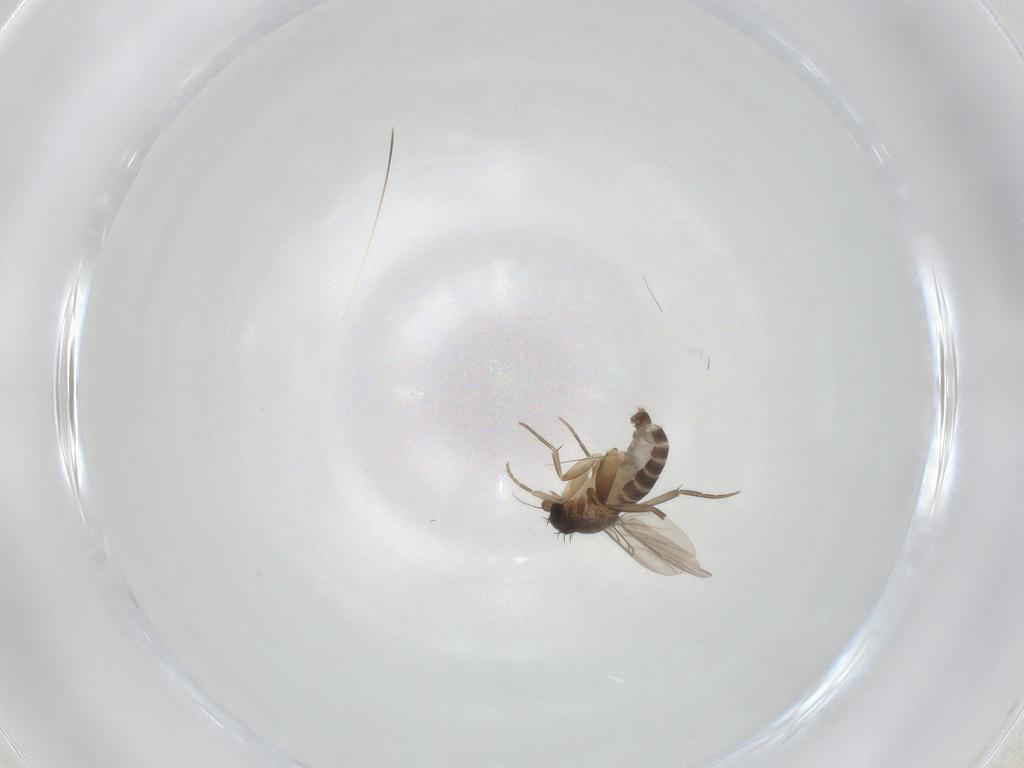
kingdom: Animalia
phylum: Arthropoda
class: Insecta
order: Diptera
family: Phoridae
